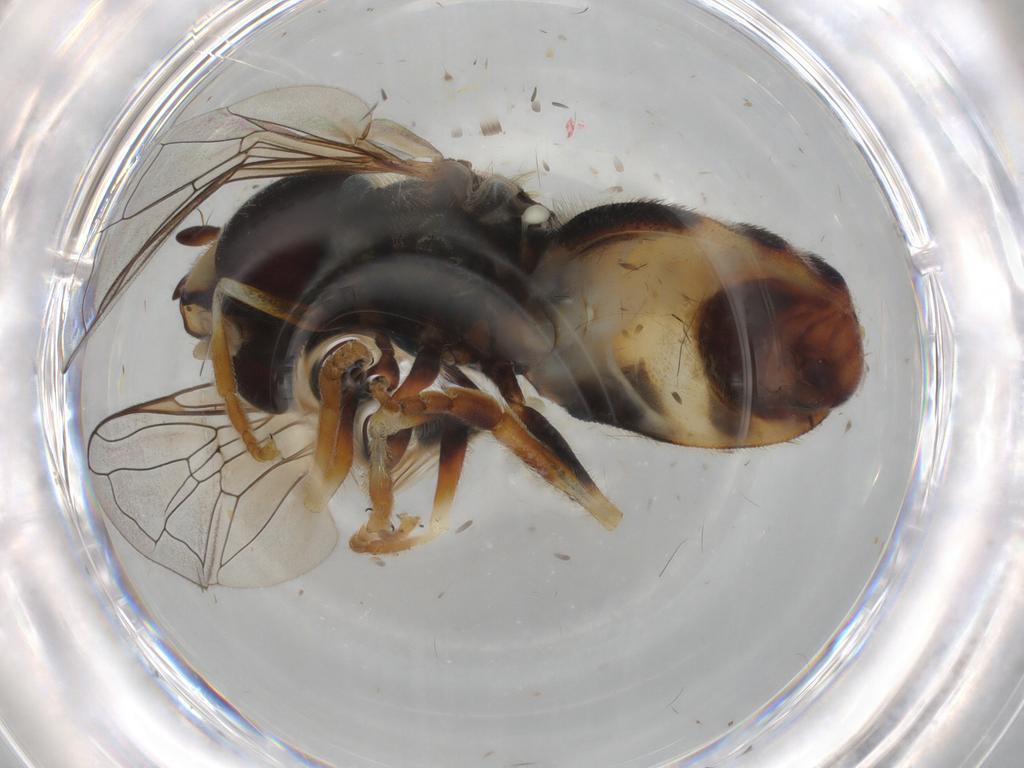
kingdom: Animalia
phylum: Arthropoda
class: Insecta
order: Diptera
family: Syrphidae
